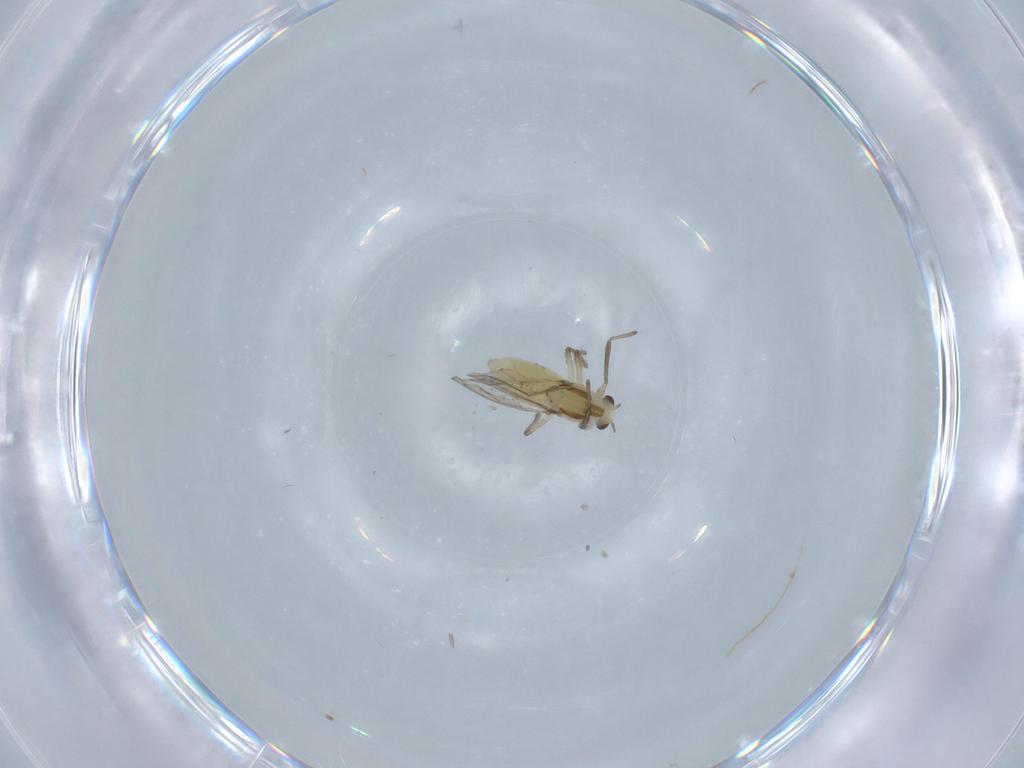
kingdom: Animalia
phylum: Arthropoda
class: Insecta
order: Diptera
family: Chironomidae
